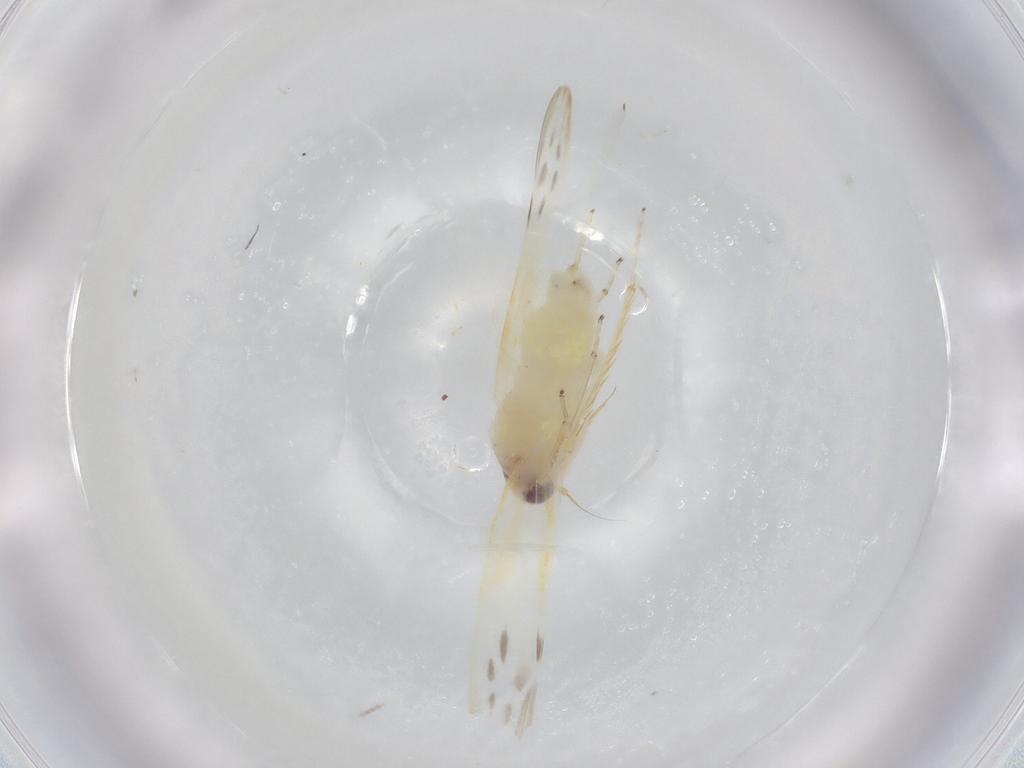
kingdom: Animalia
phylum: Arthropoda
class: Insecta
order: Hemiptera
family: Cicadellidae
